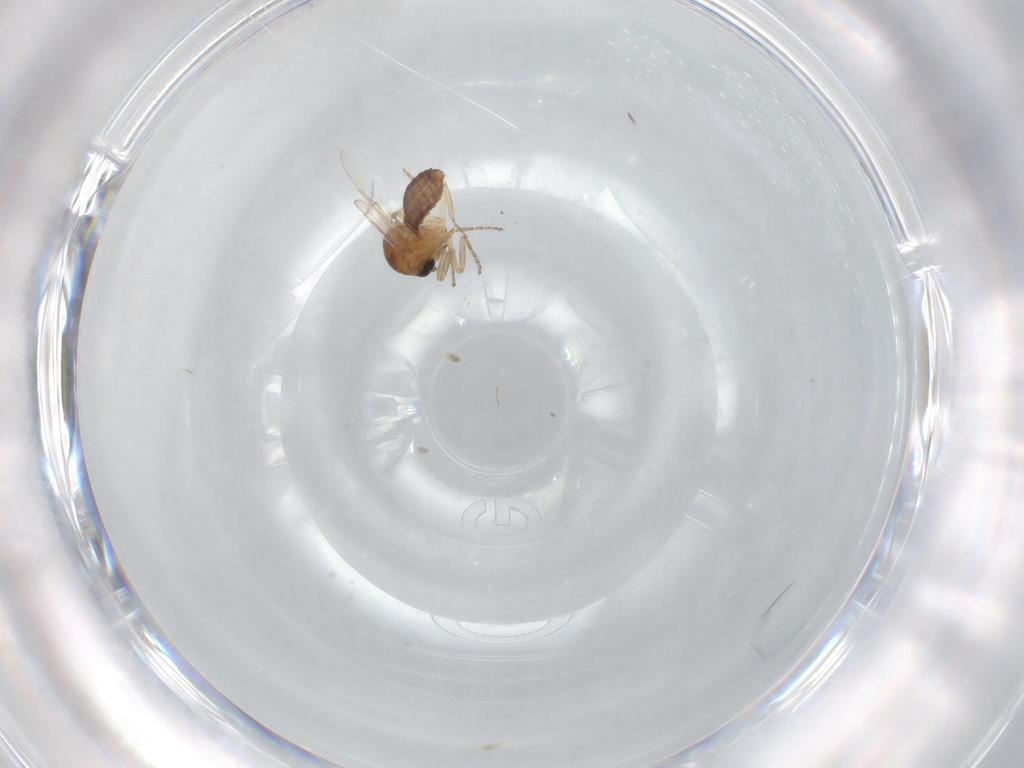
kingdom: Animalia
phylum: Arthropoda
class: Insecta
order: Diptera
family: Ceratopogonidae
